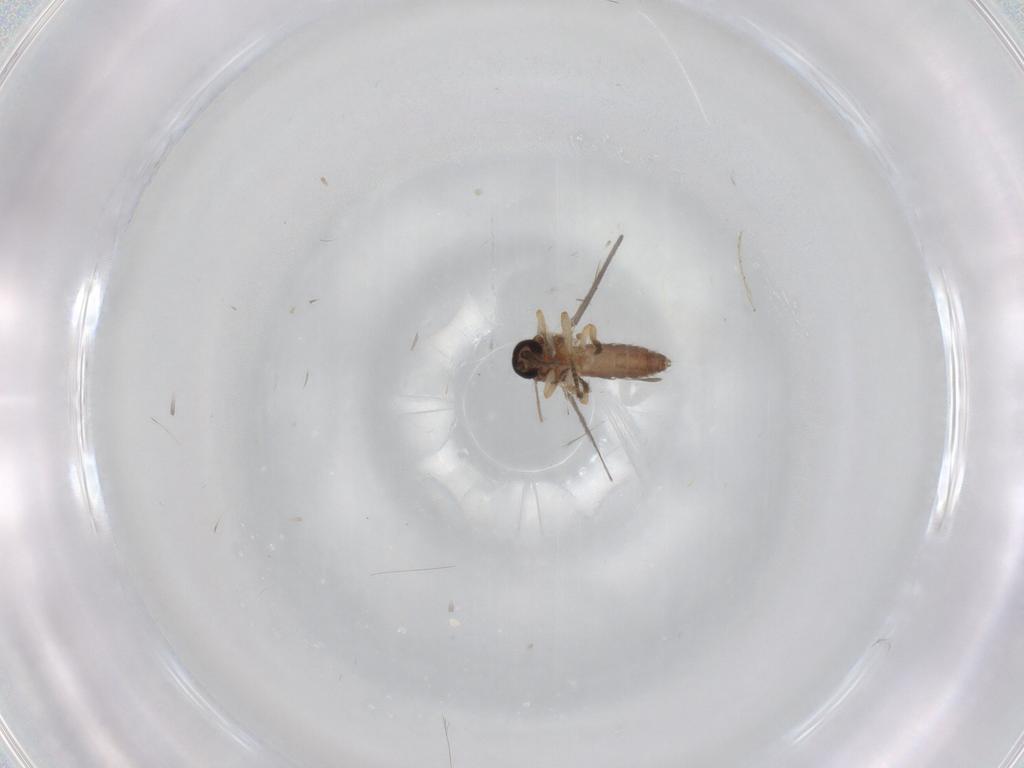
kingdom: Animalia
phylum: Arthropoda
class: Insecta
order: Diptera
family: Ceratopogonidae
